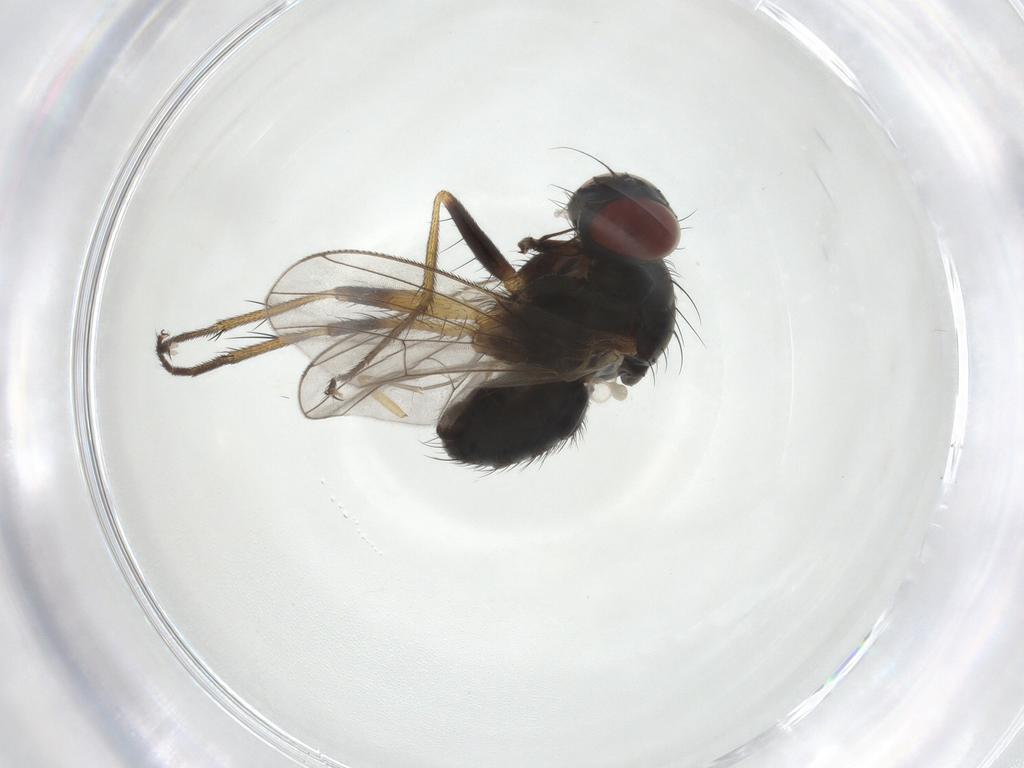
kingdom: Animalia
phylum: Arthropoda
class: Insecta
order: Diptera
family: Muscidae
